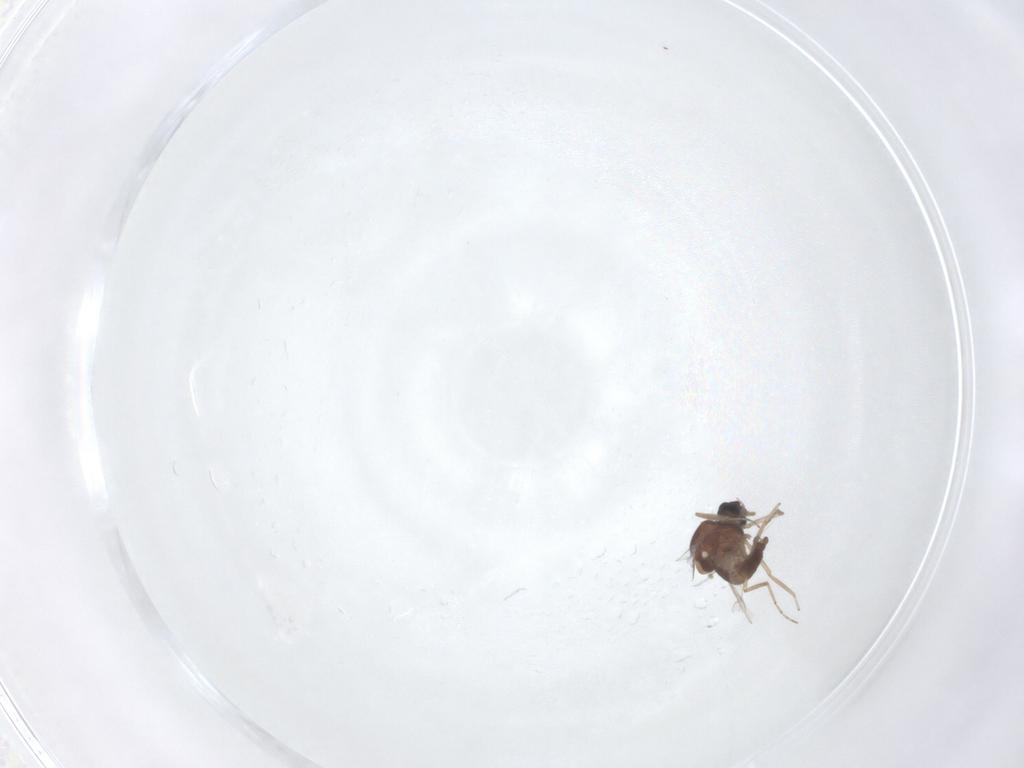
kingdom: Animalia
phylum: Arthropoda
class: Insecta
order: Diptera
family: Ceratopogonidae
